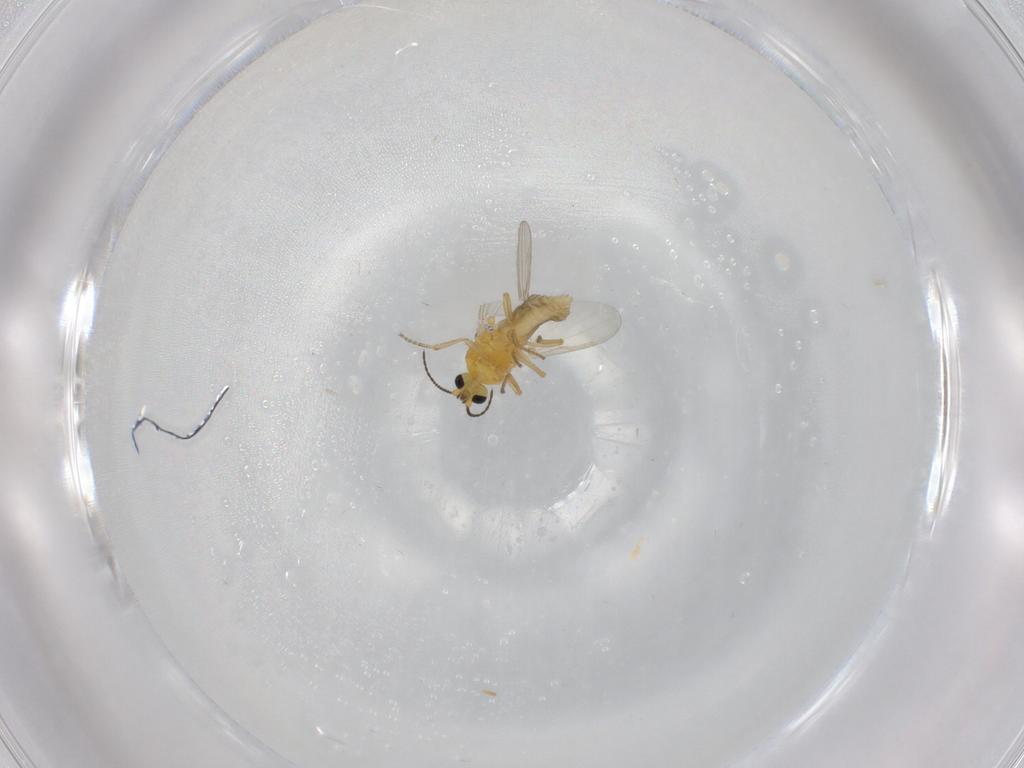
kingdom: Animalia
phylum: Arthropoda
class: Insecta
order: Diptera
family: Ceratopogonidae
